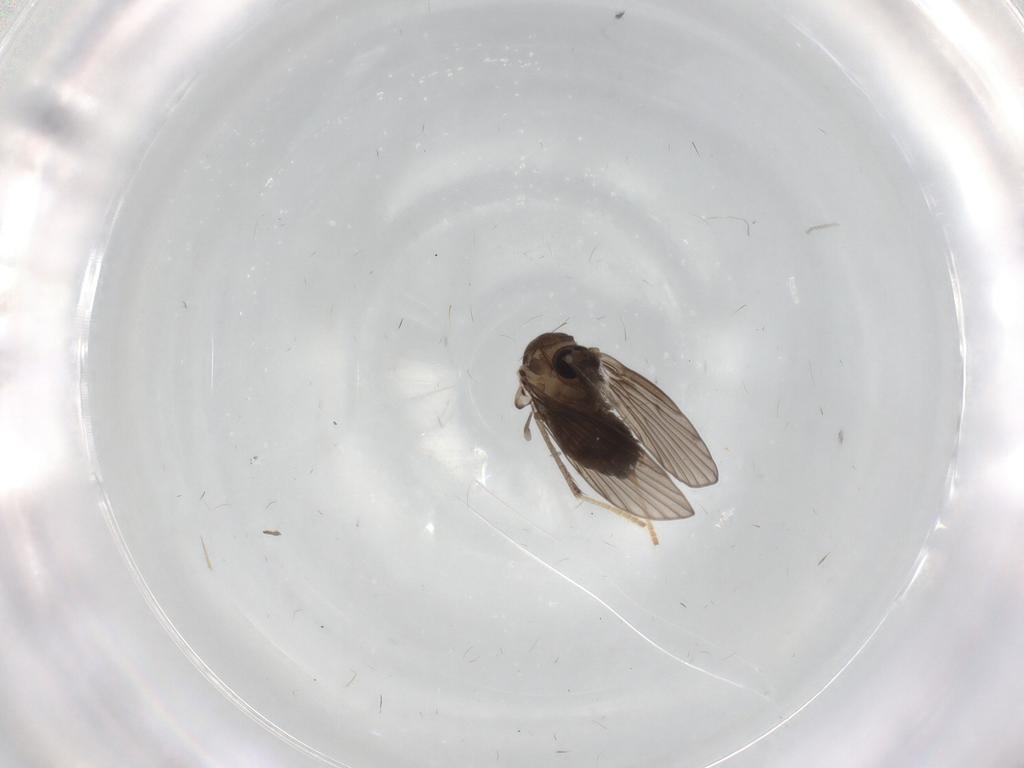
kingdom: Animalia
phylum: Arthropoda
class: Insecta
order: Diptera
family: Psychodidae
